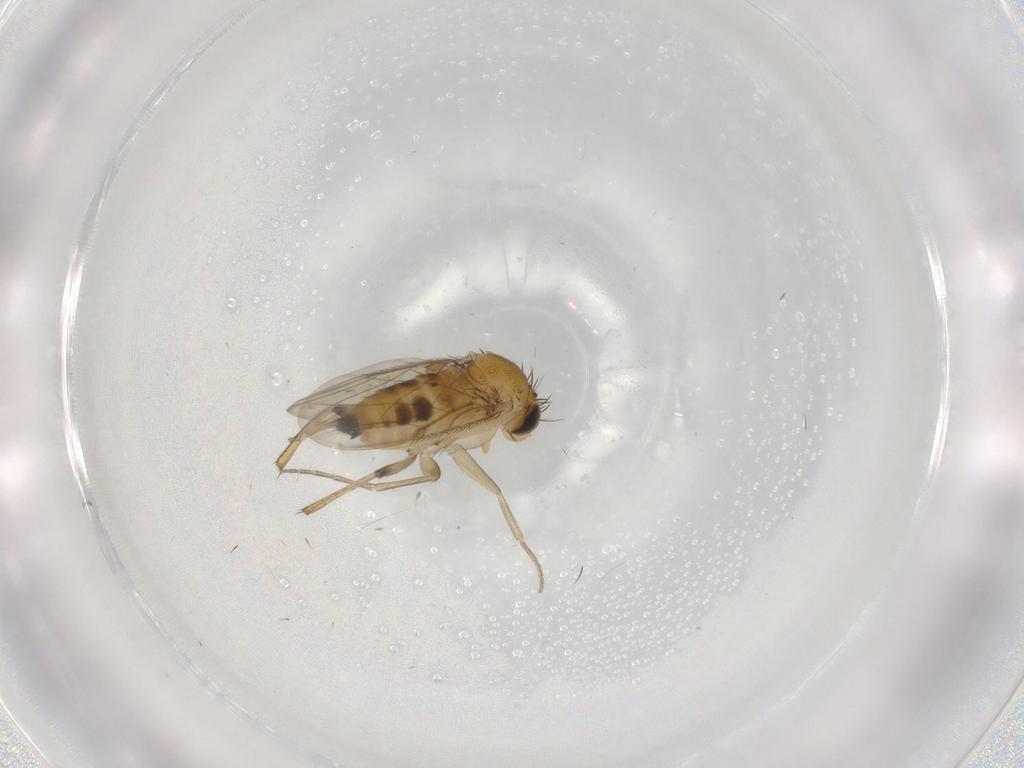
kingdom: Animalia
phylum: Arthropoda
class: Insecta
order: Diptera
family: Phoridae
